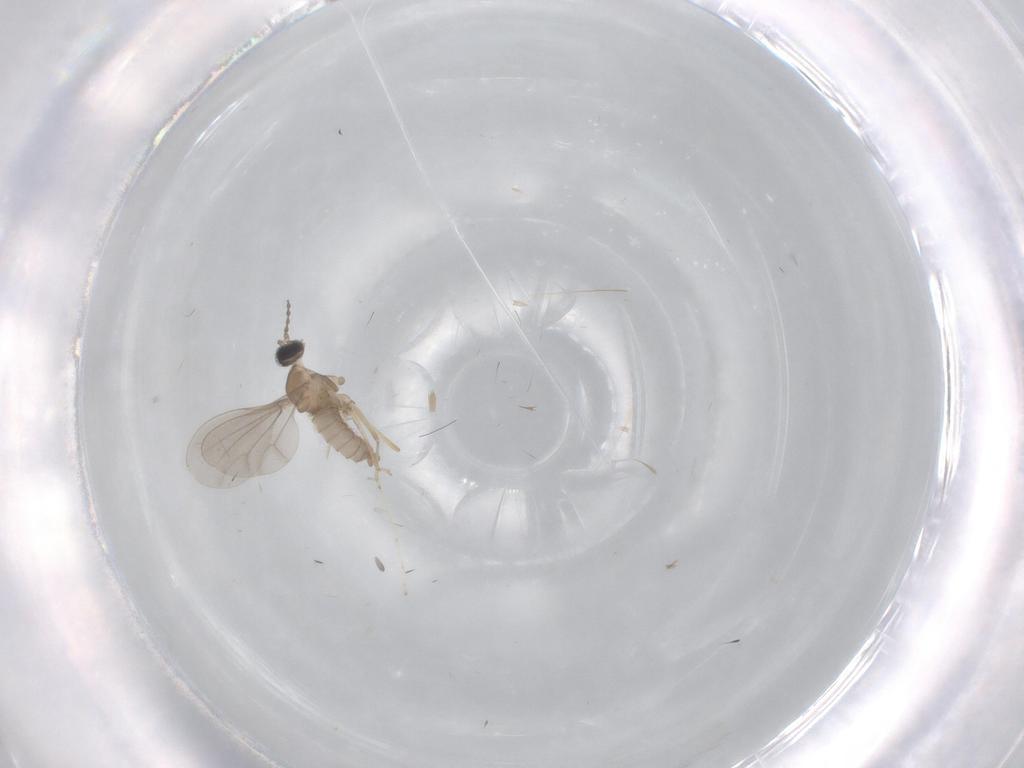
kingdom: Animalia
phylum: Arthropoda
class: Insecta
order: Diptera
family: Cecidomyiidae
